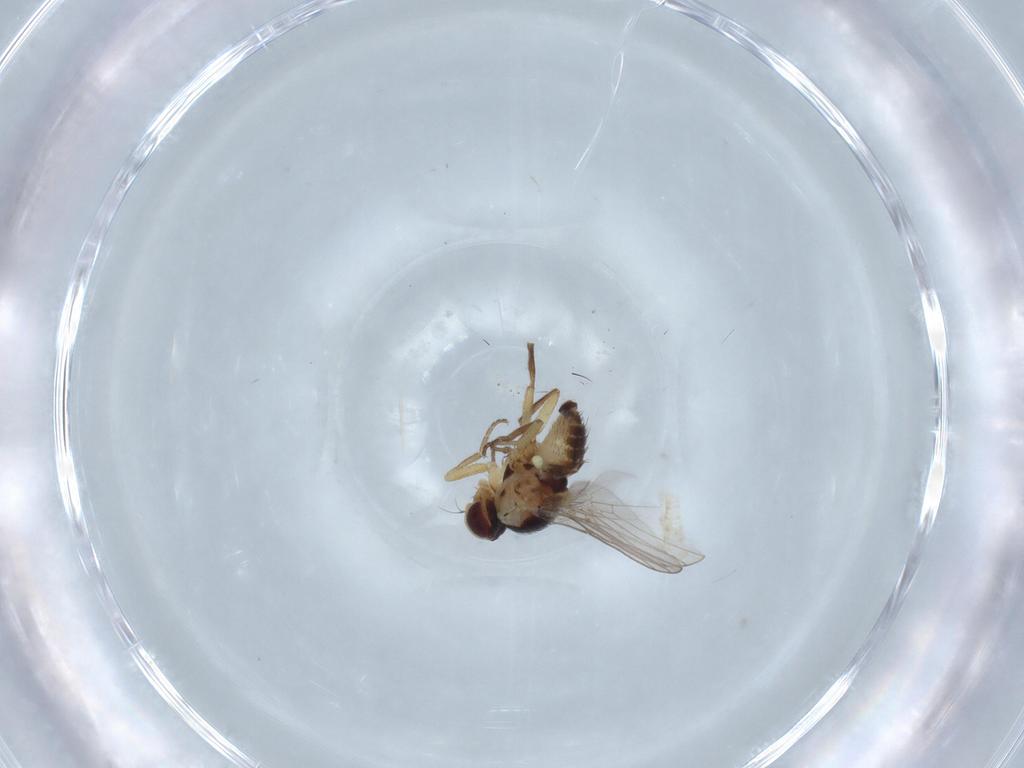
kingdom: Animalia
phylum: Arthropoda
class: Insecta
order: Diptera
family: Agromyzidae
